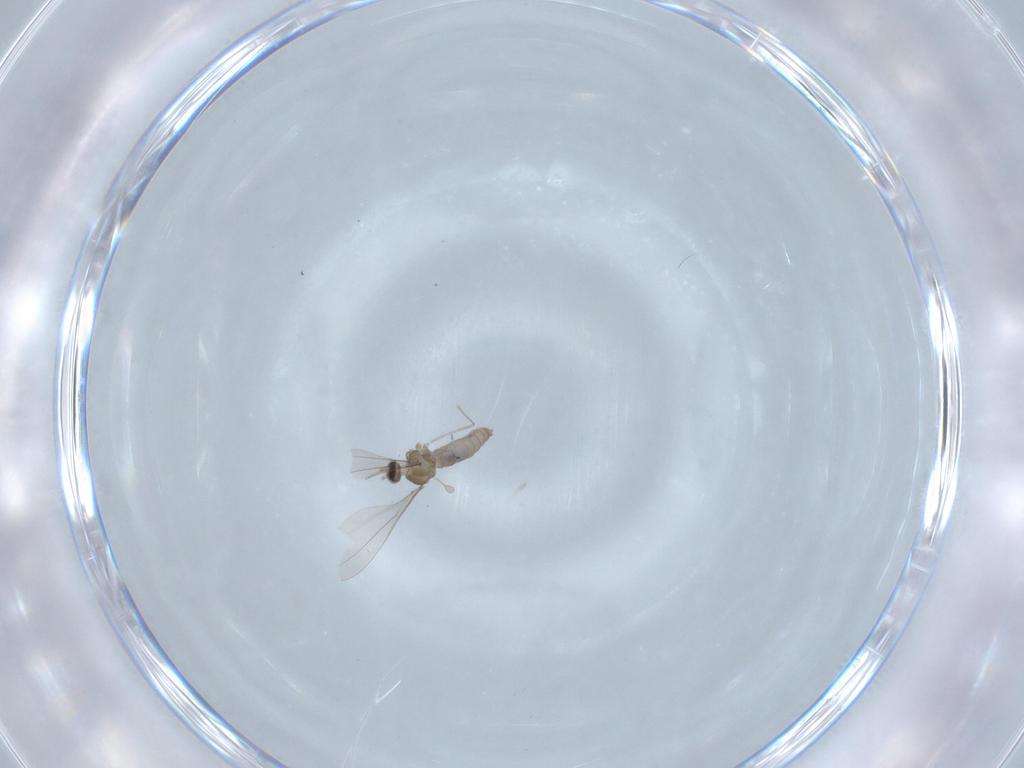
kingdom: Animalia
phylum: Arthropoda
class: Insecta
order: Diptera
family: Cecidomyiidae
